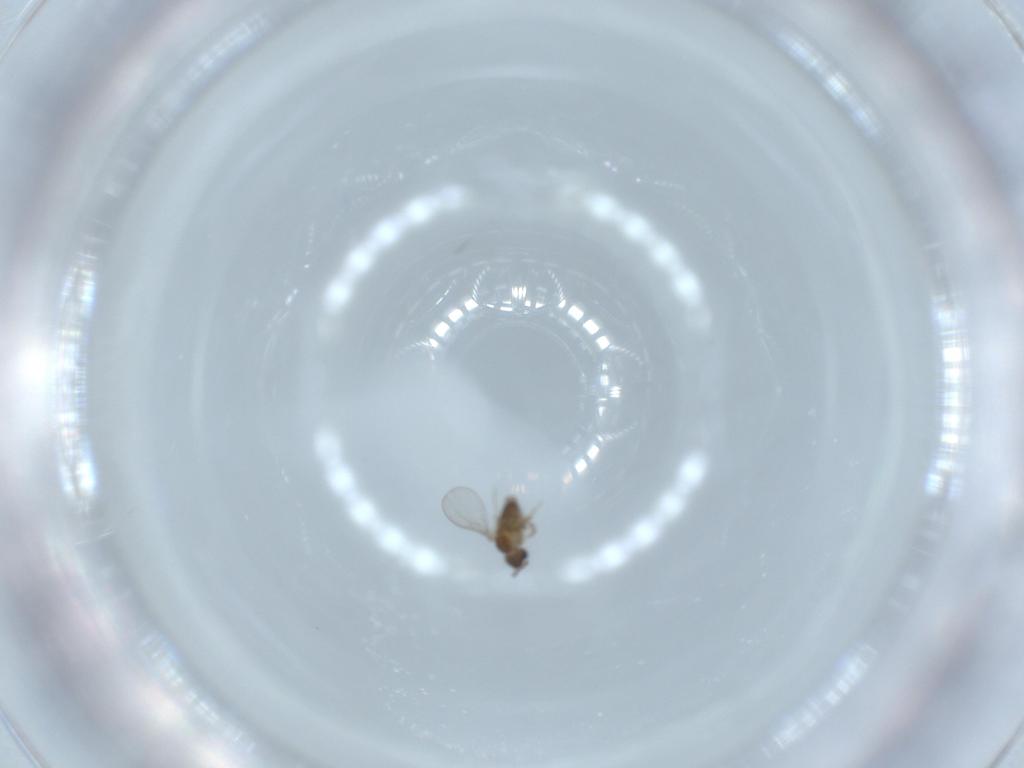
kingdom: Animalia
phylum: Arthropoda
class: Insecta
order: Diptera
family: Cecidomyiidae
